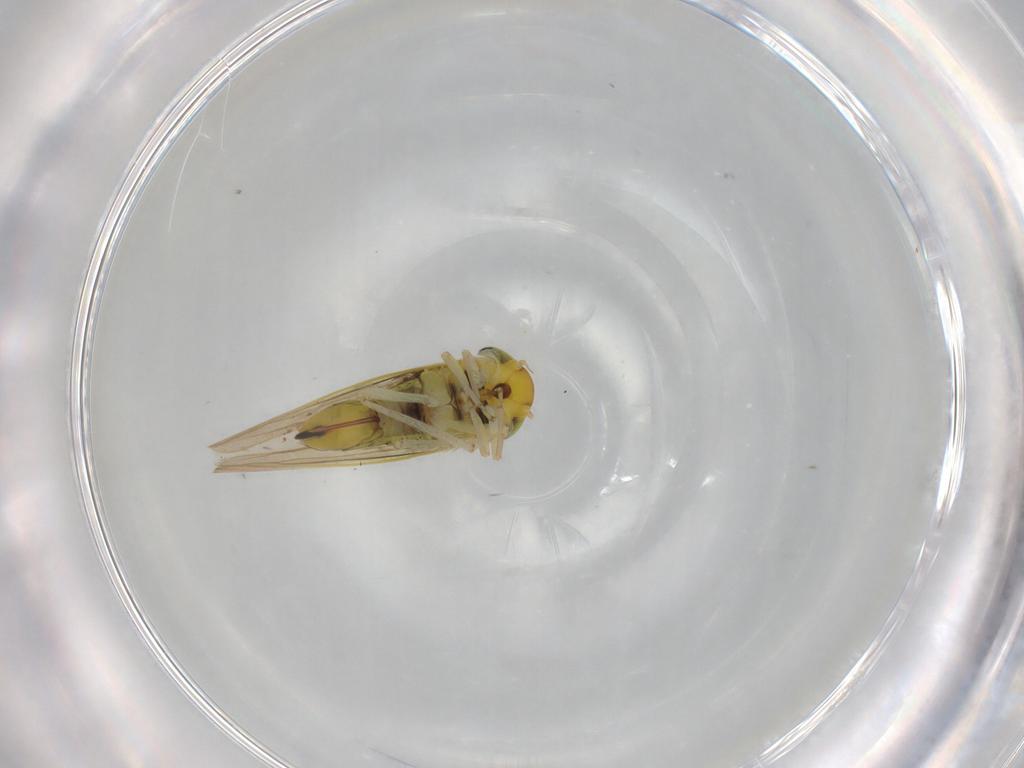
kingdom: Animalia
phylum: Arthropoda
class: Insecta
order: Hemiptera
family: Cicadellidae
